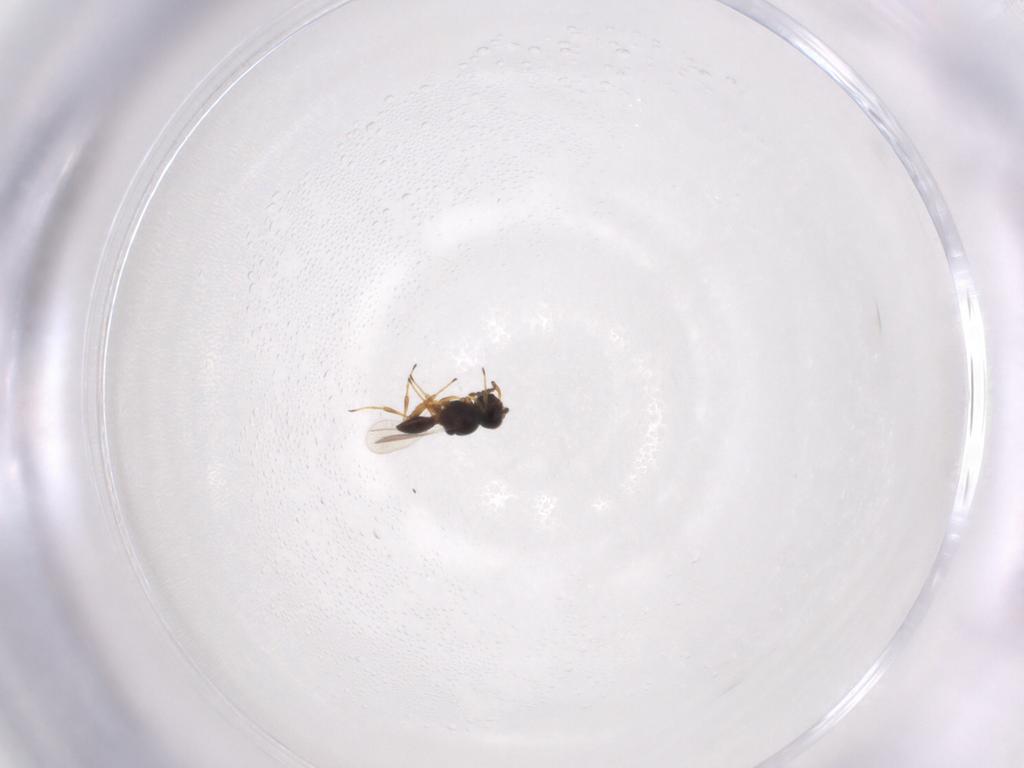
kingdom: Animalia
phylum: Arthropoda
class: Insecta
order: Hymenoptera
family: Platygastridae
